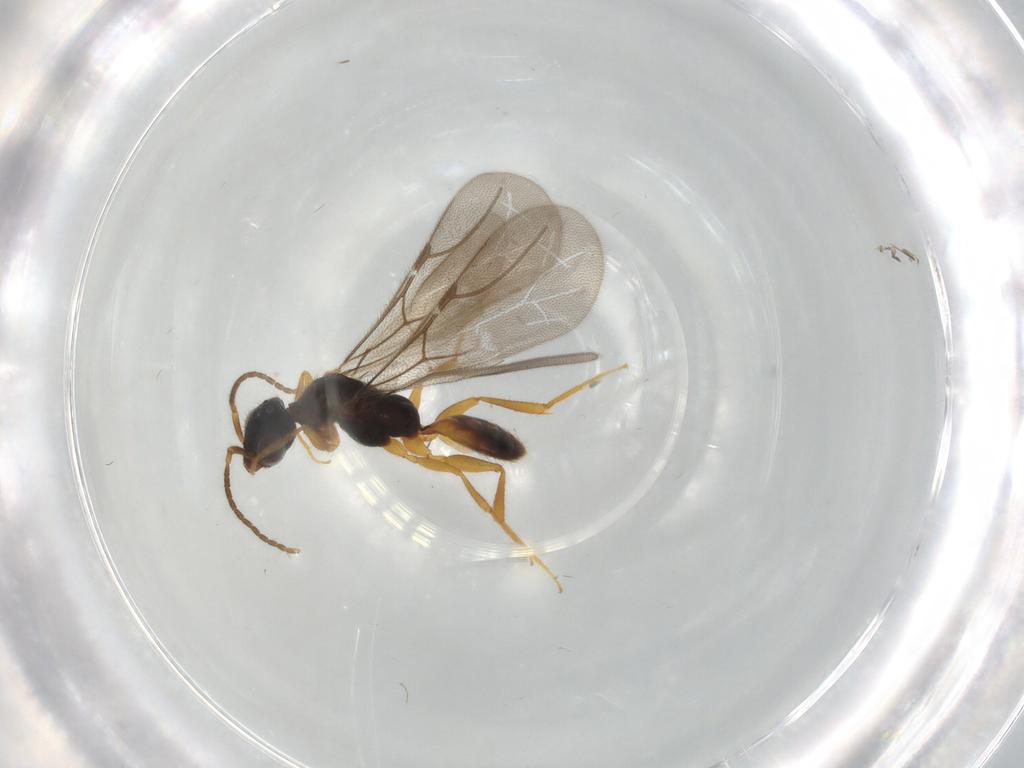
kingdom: Animalia
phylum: Arthropoda
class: Insecta
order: Hymenoptera
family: Bethylidae
